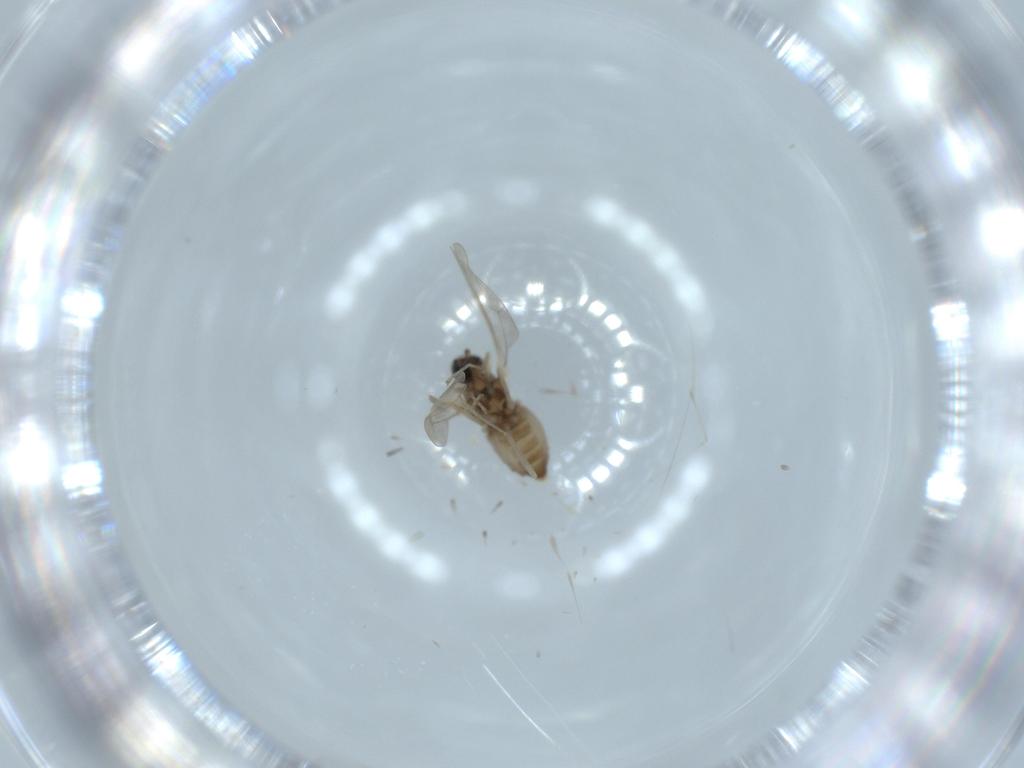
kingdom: Animalia
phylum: Arthropoda
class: Insecta
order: Diptera
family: Cecidomyiidae
